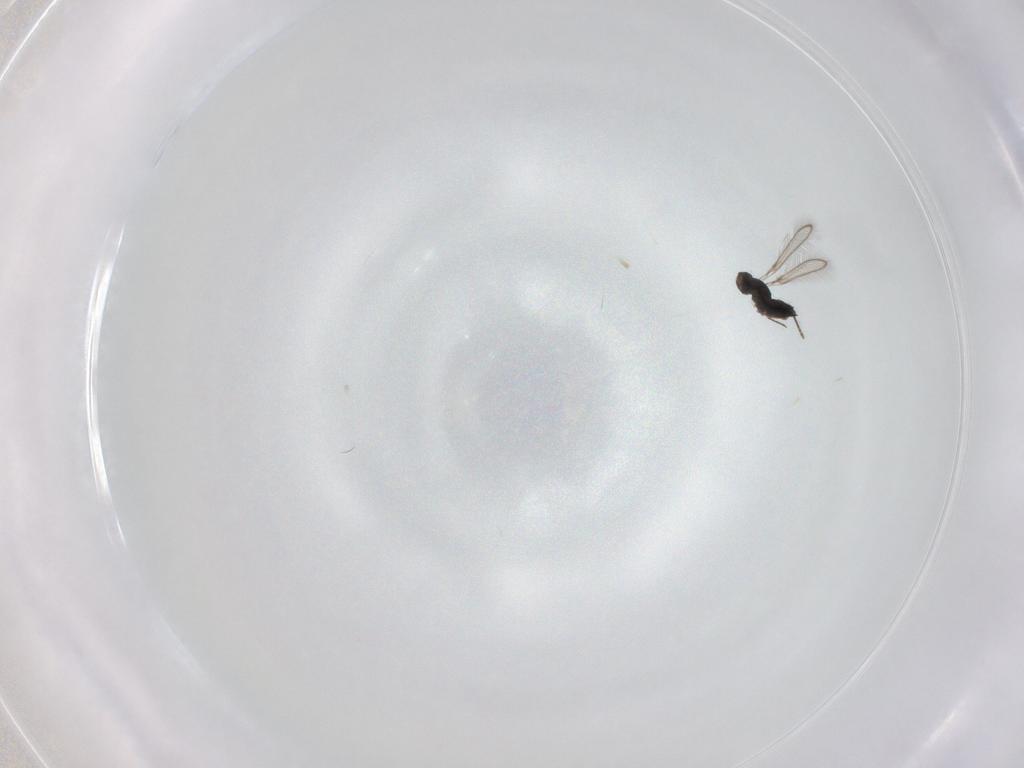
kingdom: Animalia
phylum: Arthropoda
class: Insecta
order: Hymenoptera
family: Mymaridae
